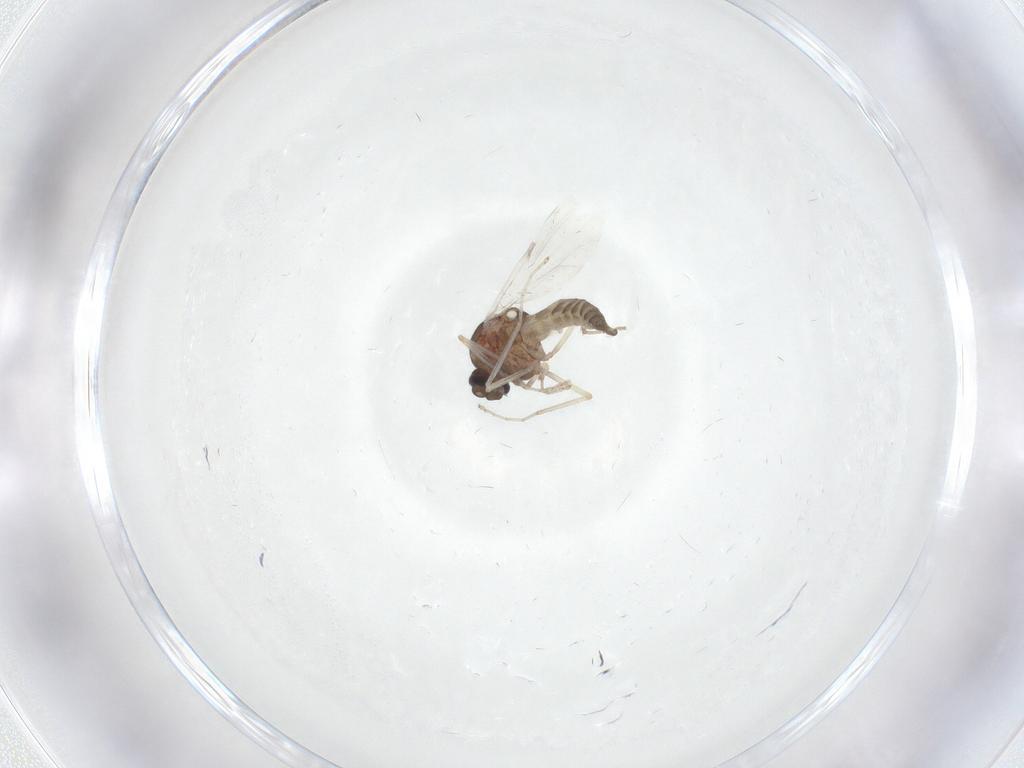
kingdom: Animalia
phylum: Arthropoda
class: Insecta
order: Diptera
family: Ceratopogonidae
